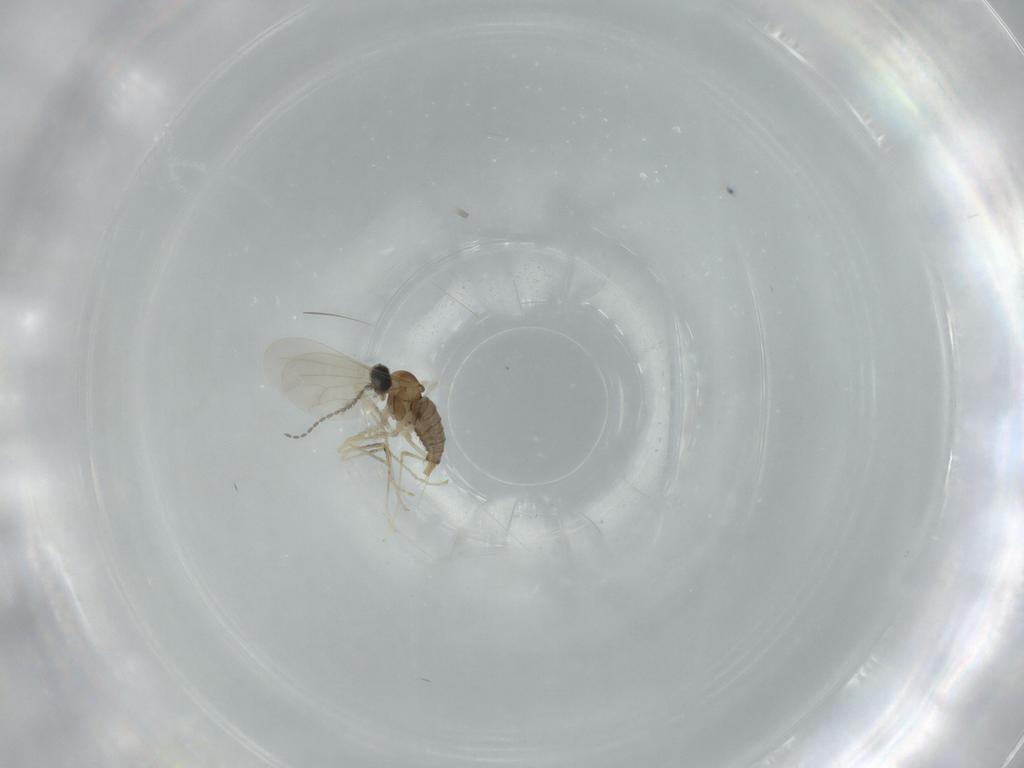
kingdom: Animalia
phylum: Arthropoda
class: Insecta
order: Diptera
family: Cecidomyiidae
